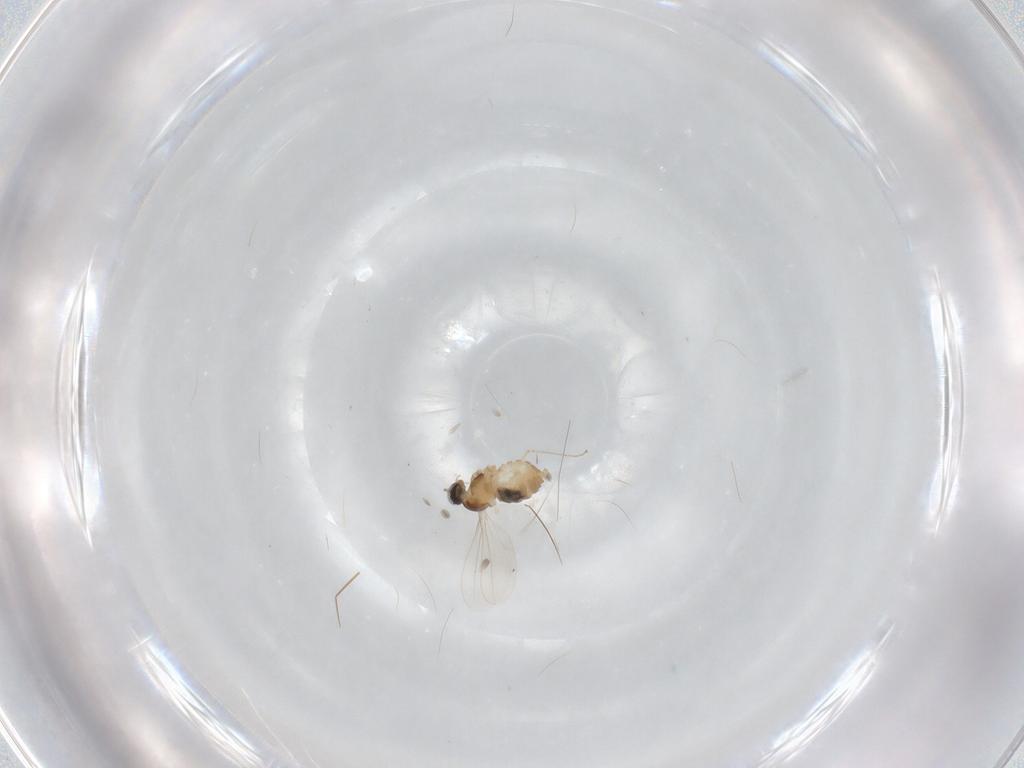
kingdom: Animalia
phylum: Arthropoda
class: Insecta
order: Diptera
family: Cecidomyiidae
